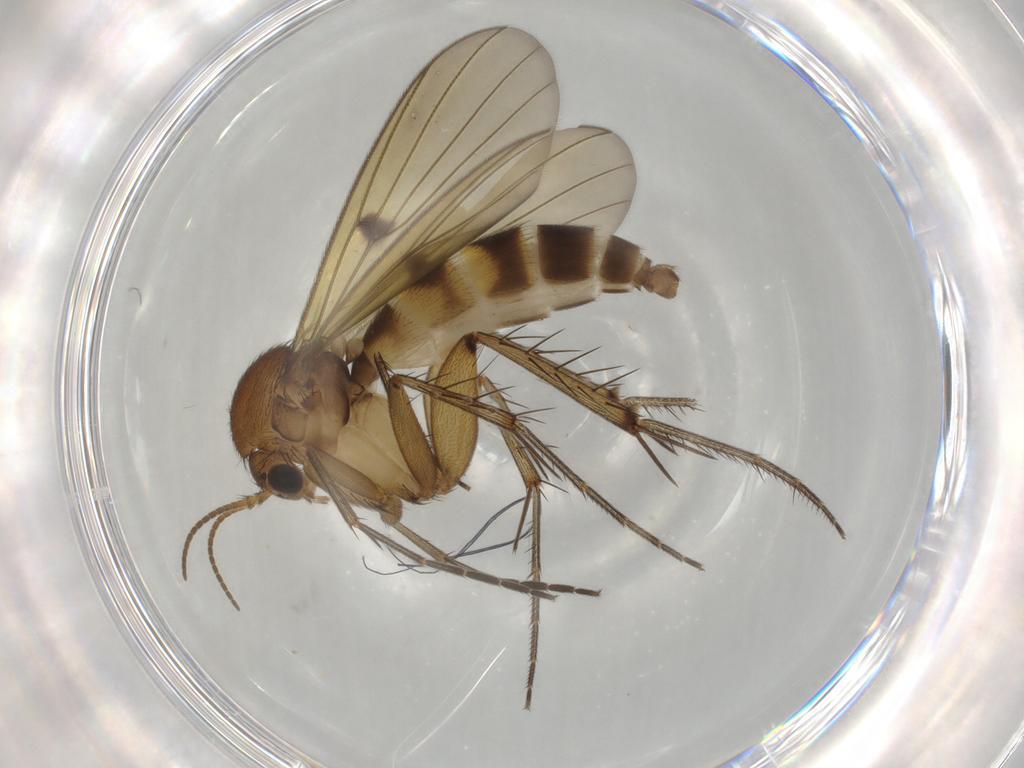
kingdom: Animalia
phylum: Arthropoda
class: Insecta
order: Diptera
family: Mycetophilidae
